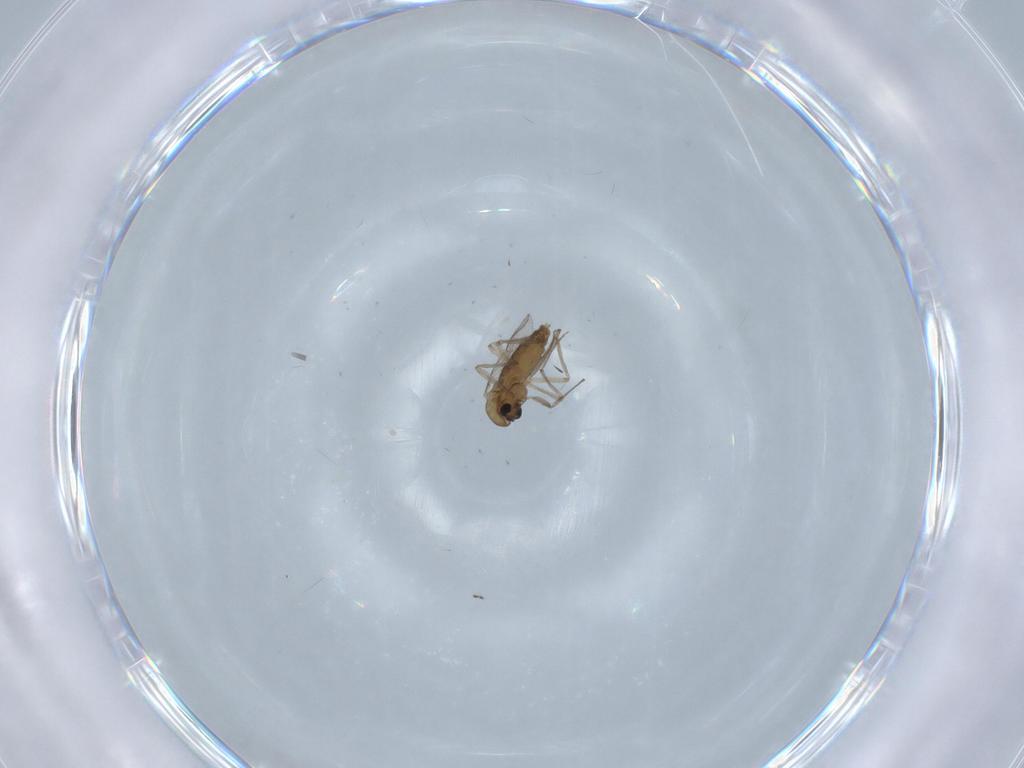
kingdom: Animalia
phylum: Arthropoda
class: Insecta
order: Diptera
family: Chironomidae
